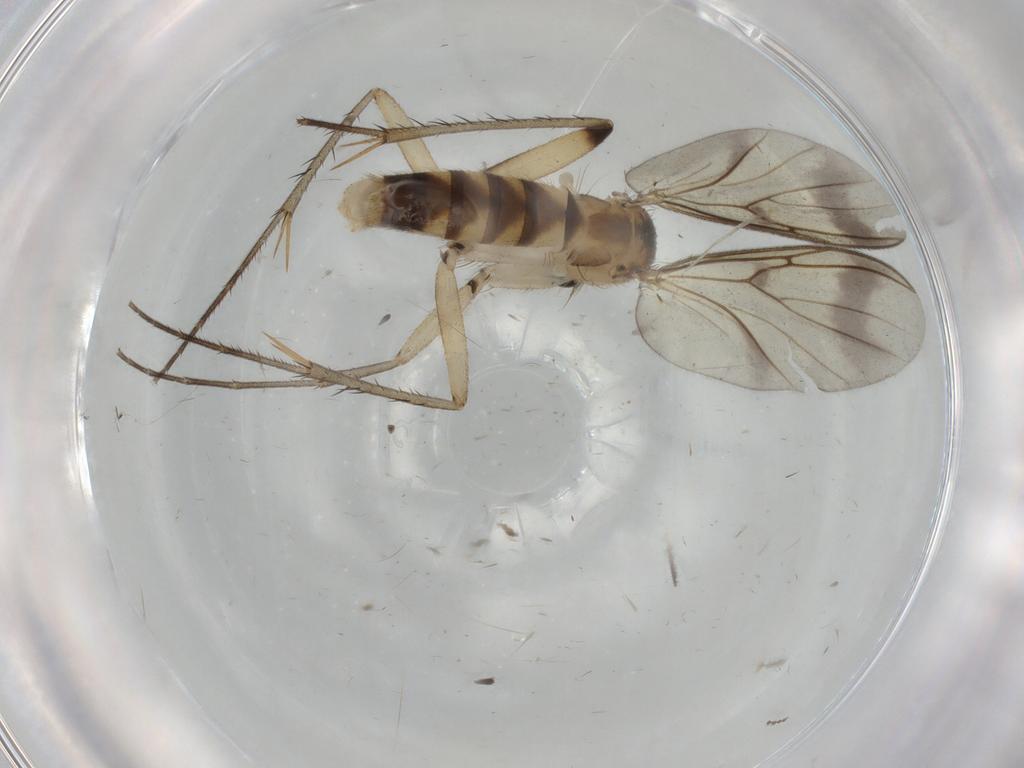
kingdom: Animalia
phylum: Arthropoda
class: Insecta
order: Diptera
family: Mycetophilidae
